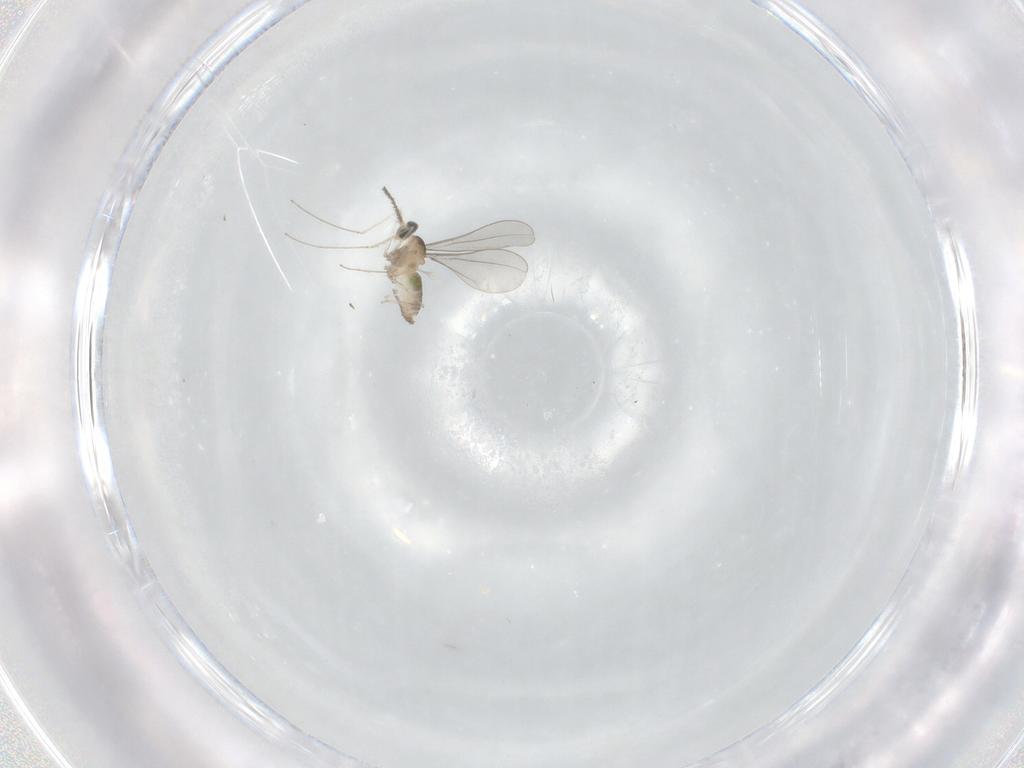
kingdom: Animalia
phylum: Arthropoda
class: Insecta
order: Diptera
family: Cecidomyiidae
